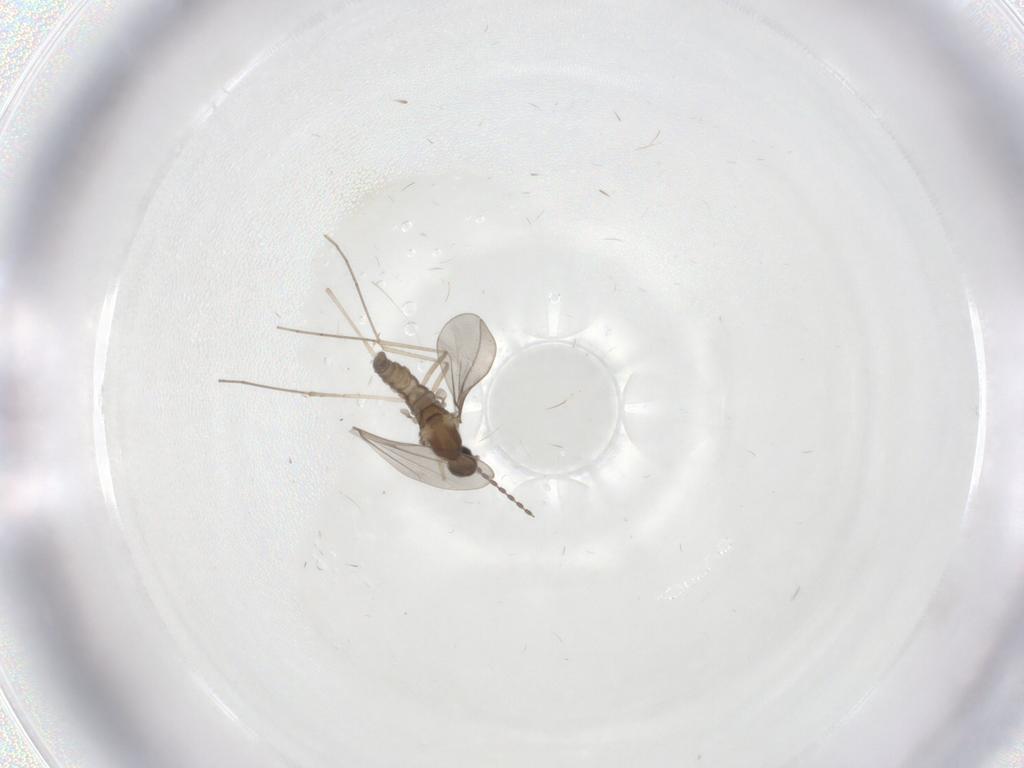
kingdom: Animalia
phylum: Arthropoda
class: Insecta
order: Diptera
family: Cecidomyiidae
